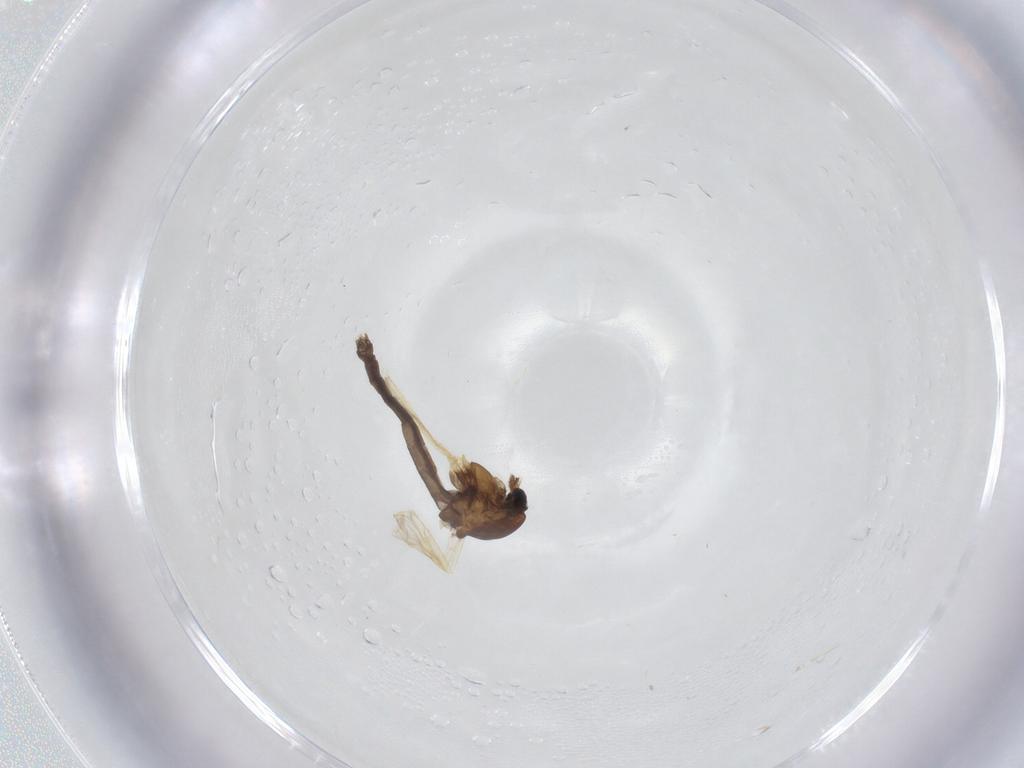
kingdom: Animalia
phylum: Arthropoda
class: Insecta
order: Diptera
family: Chironomidae
